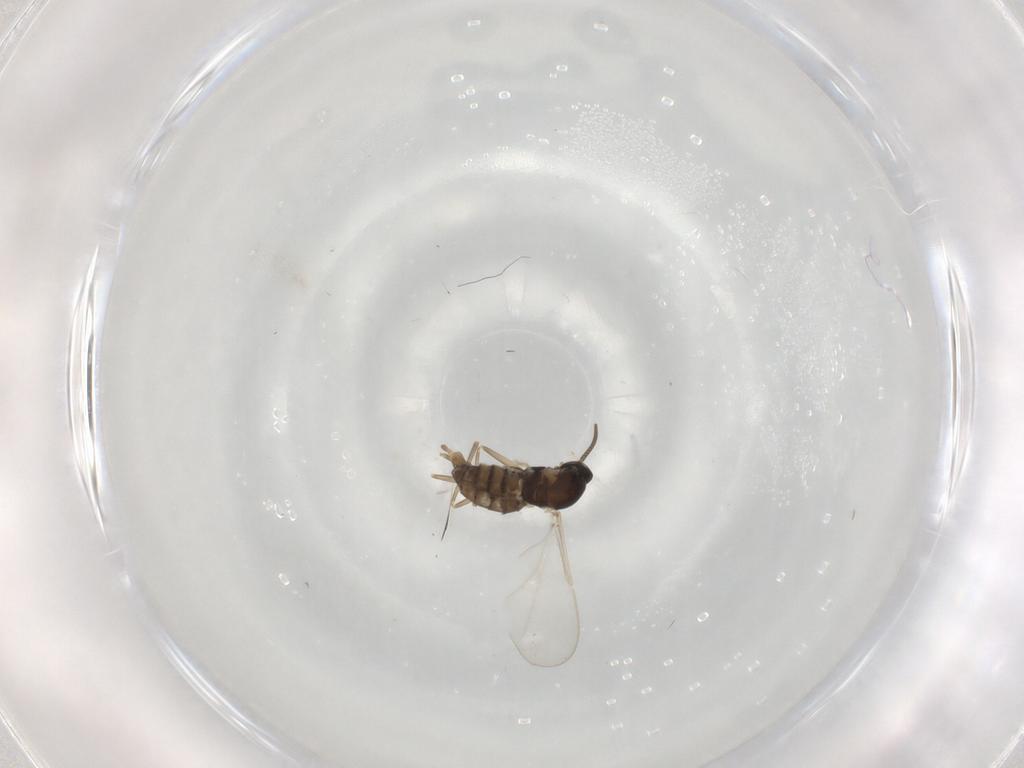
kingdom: Animalia
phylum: Arthropoda
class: Insecta
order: Diptera
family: Cecidomyiidae
